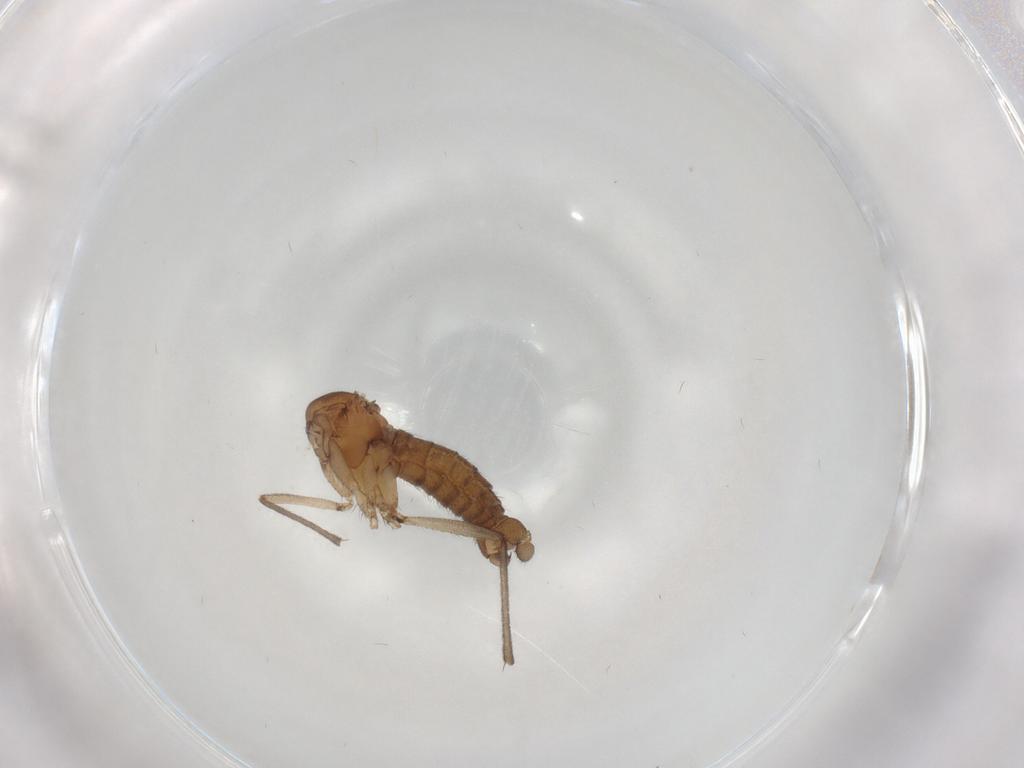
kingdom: Animalia
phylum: Arthropoda
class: Insecta
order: Diptera
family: Sciaridae
